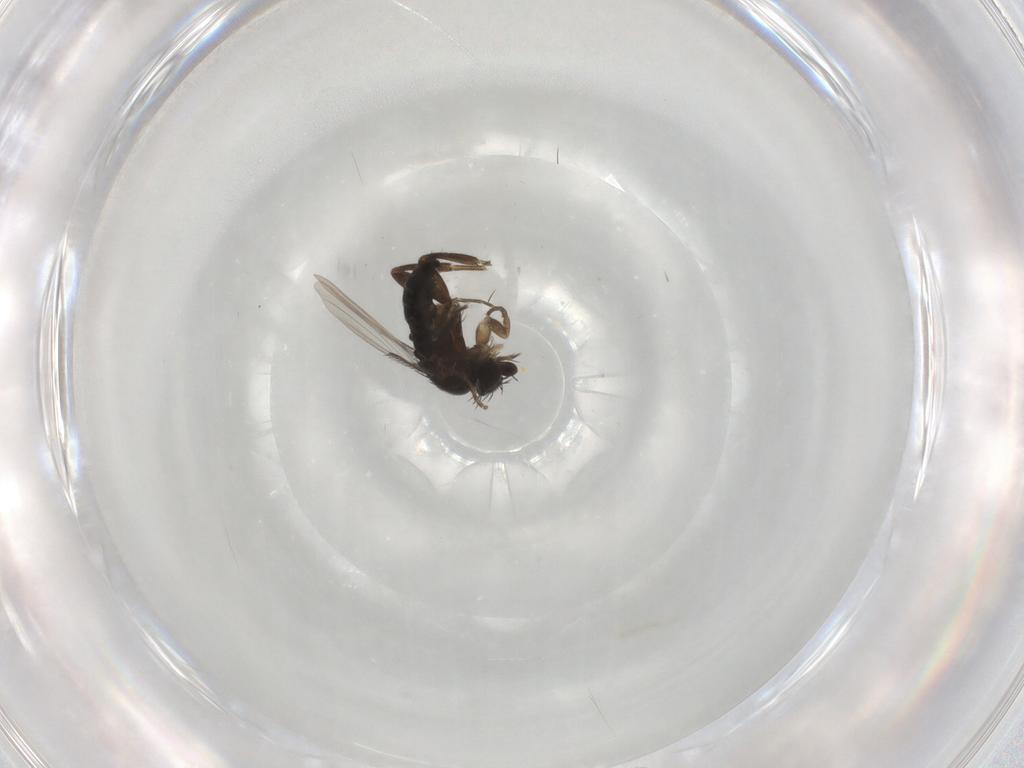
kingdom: Animalia
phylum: Arthropoda
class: Insecta
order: Diptera
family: Phoridae
